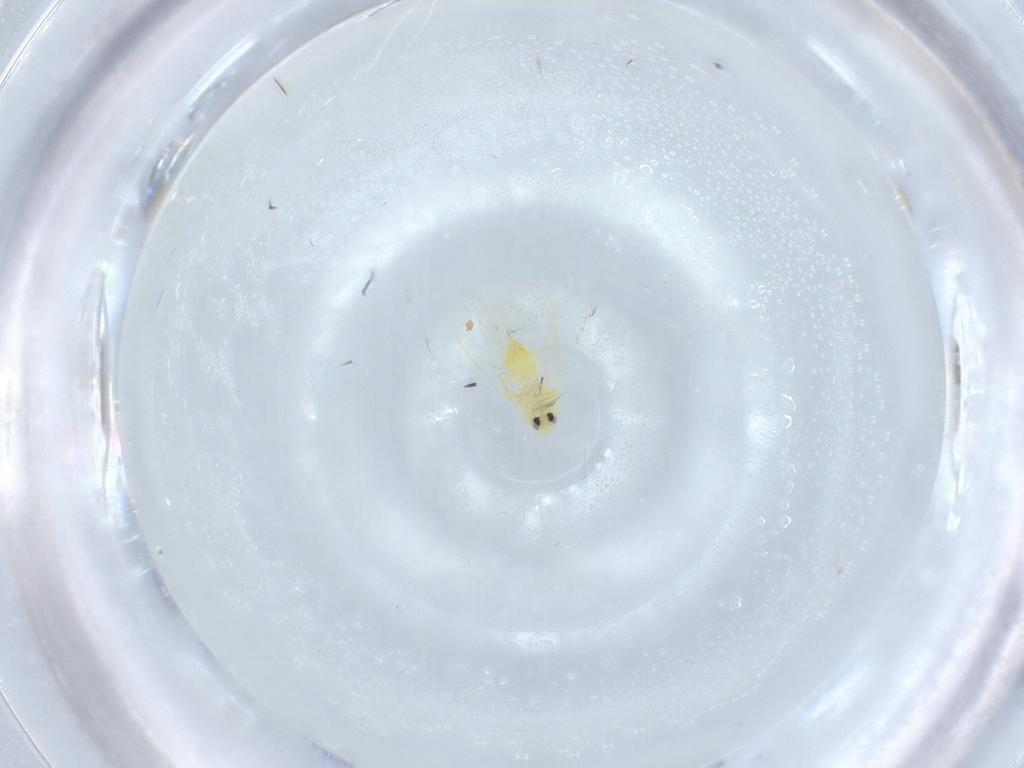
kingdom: Animalia
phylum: Arthropoda
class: Insecta
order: Hemiptera
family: Aleyrodidae
